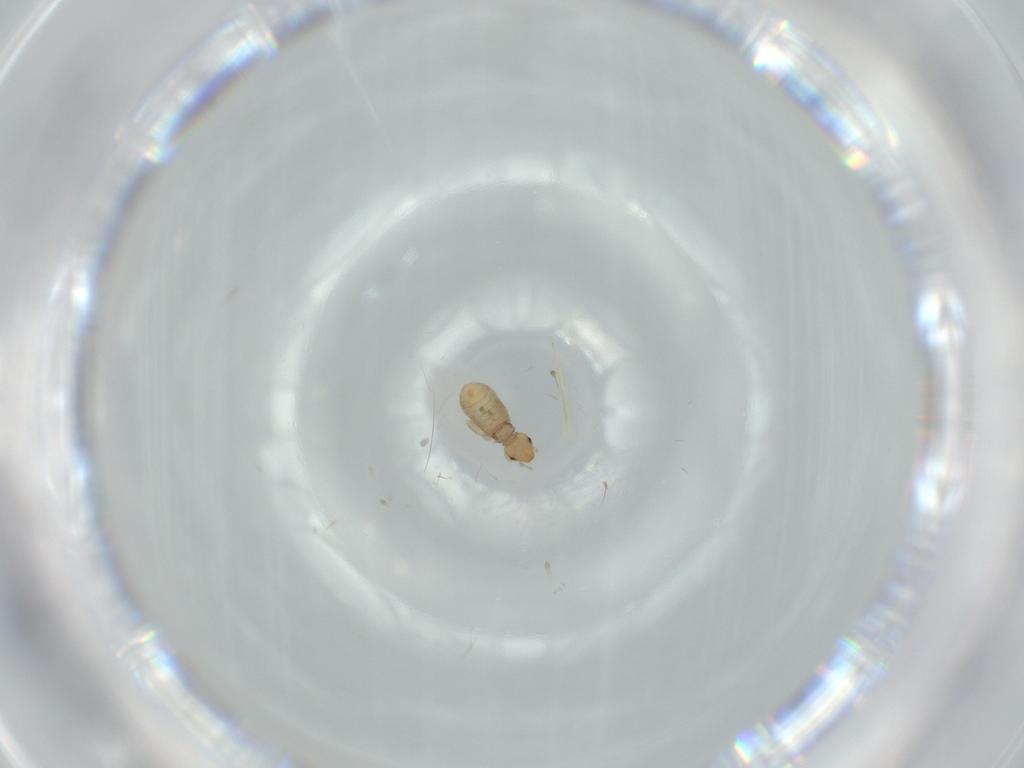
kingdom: Animalia
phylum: Arthropoda
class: Insecta
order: Psocodea
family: Liposcelididae
